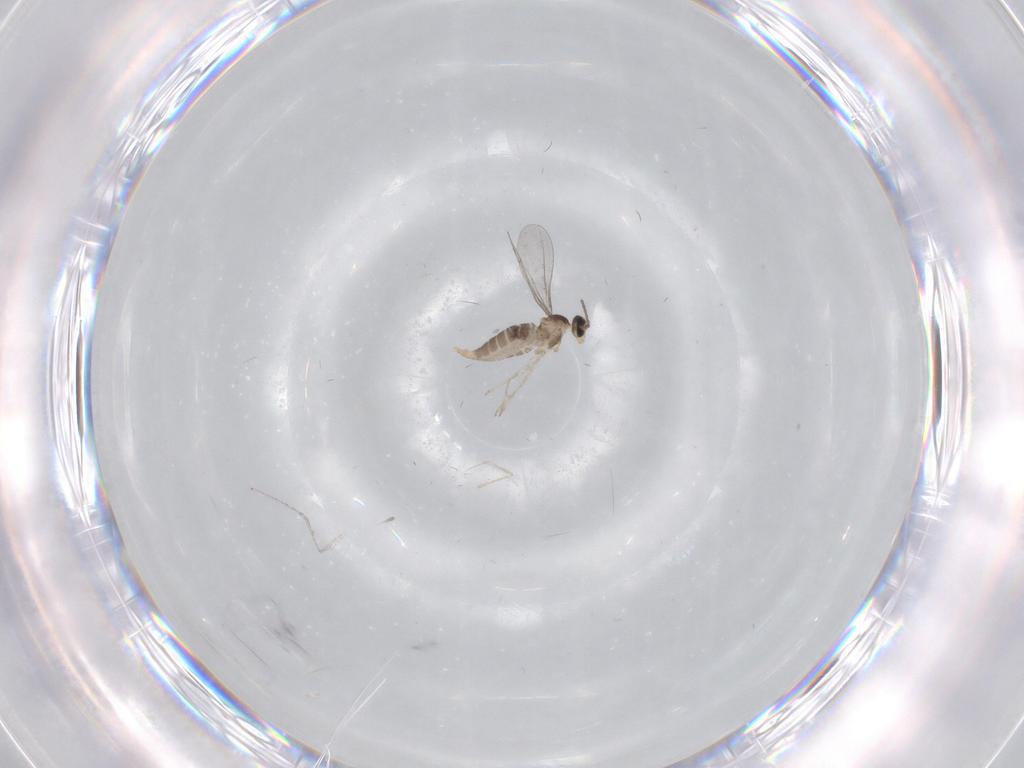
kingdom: Animalia
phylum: Arthropoda
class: Insecta
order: Diptera
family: Cecidomyiidae
